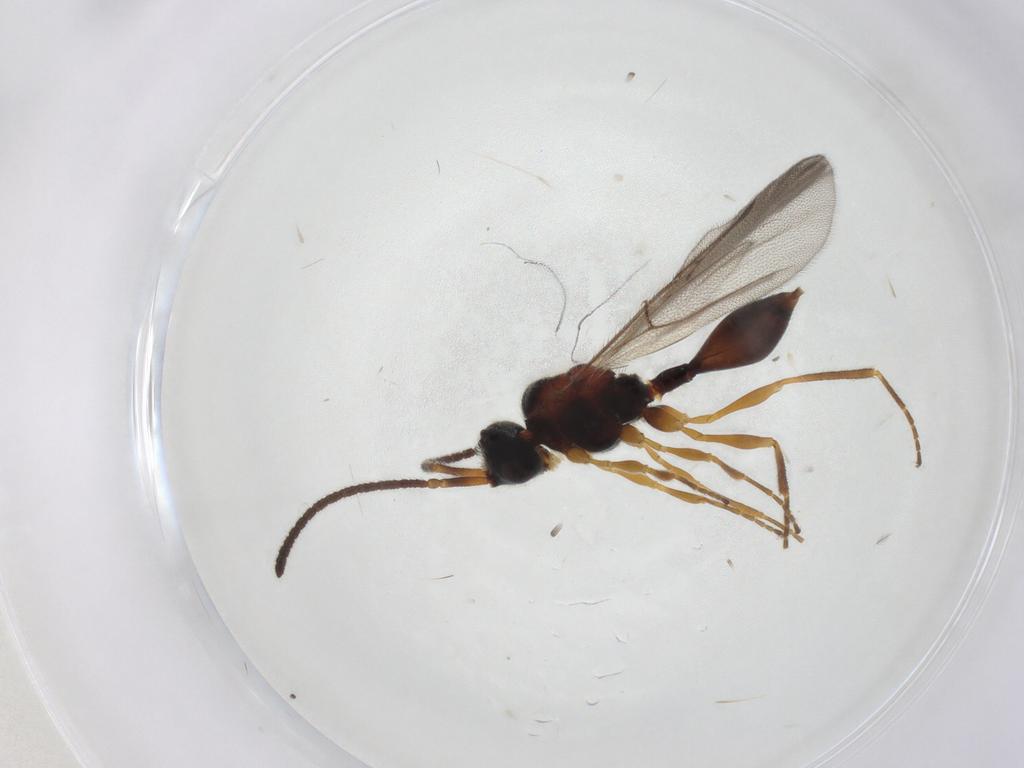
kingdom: Animalia
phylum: Arthropoda
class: Insecta
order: Hymenoptera
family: Diapriidae
